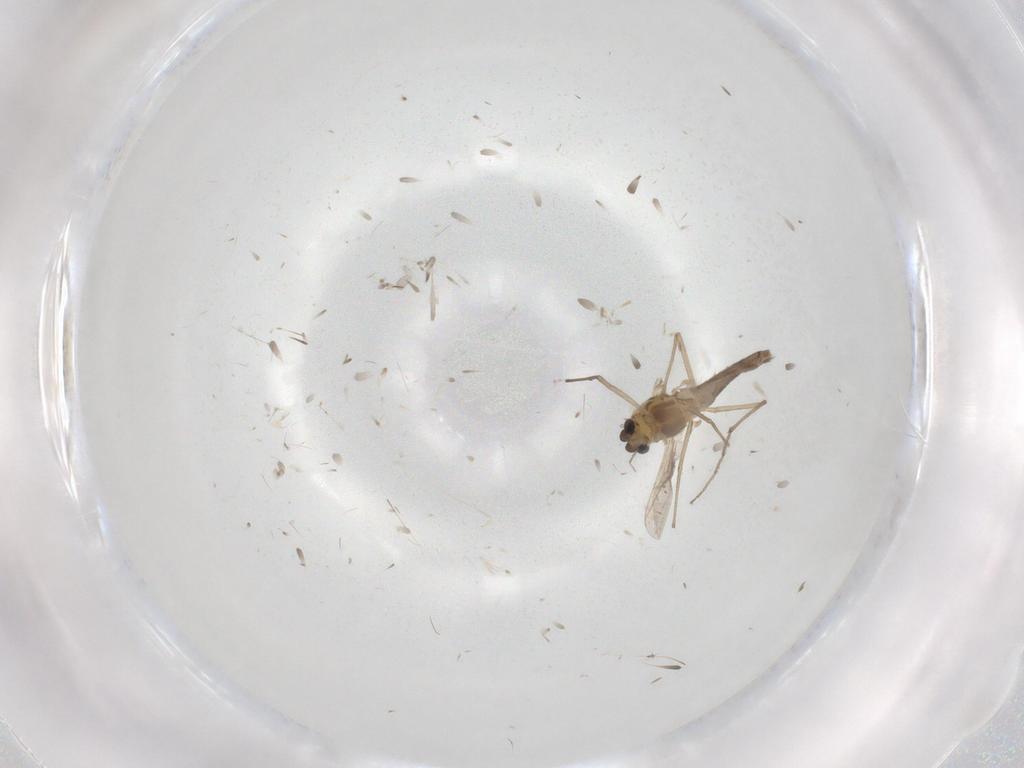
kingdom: Animalia
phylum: Arthropoda
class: Insecta
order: Diptera
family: Chironomidae
